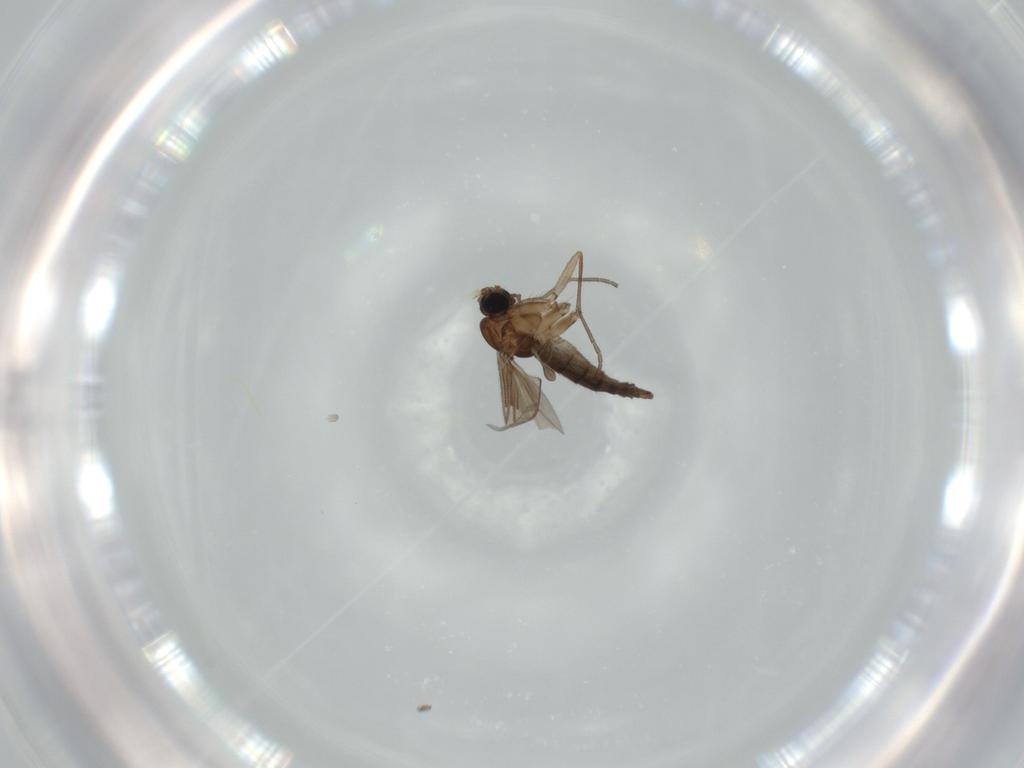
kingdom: Animalia
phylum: Arthropoda
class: Insecta
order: Diptera
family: Sciaridae
